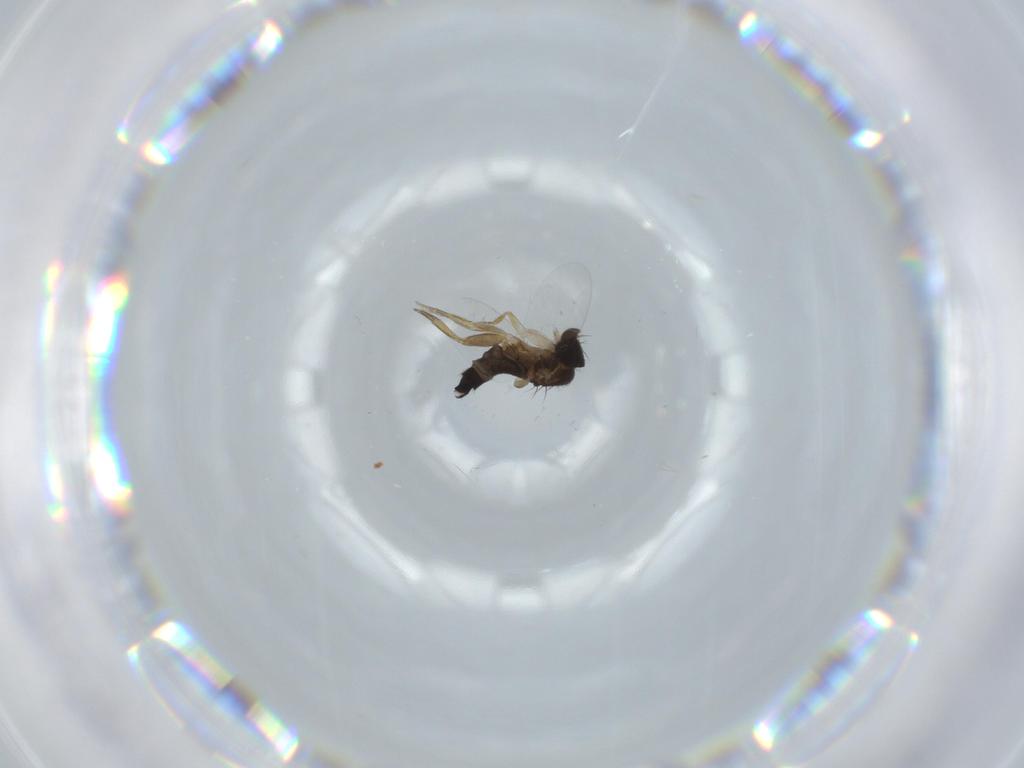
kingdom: Animalia
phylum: Arthropoda
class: Insecta
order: Diptera
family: Phoridae
